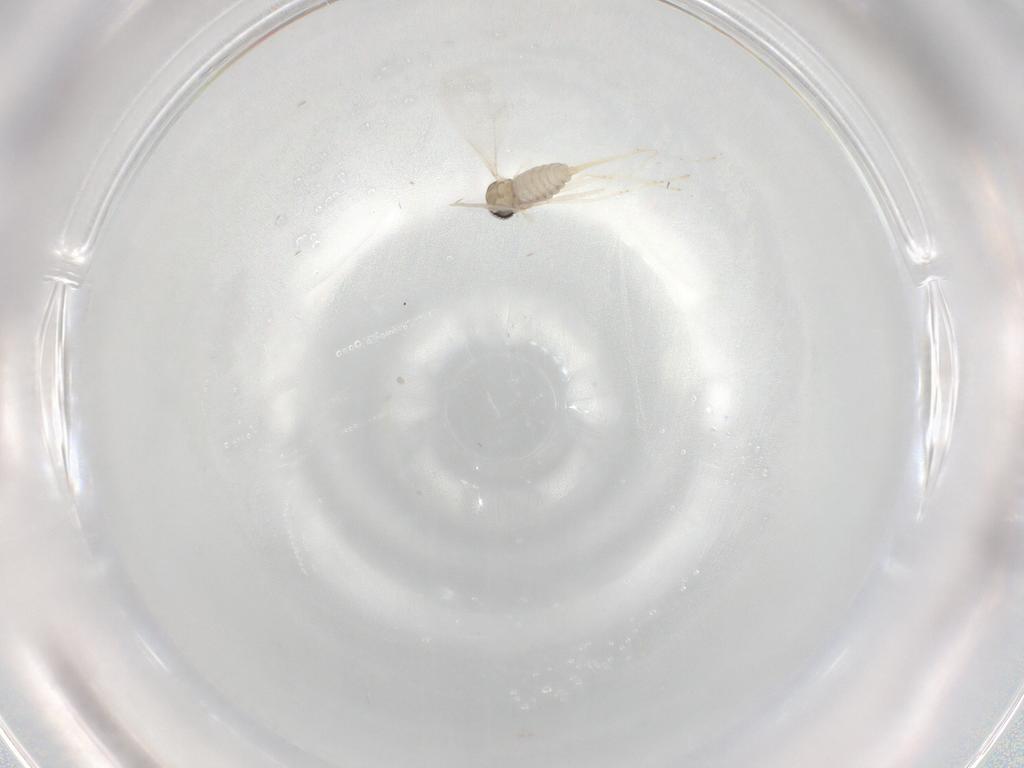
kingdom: Animalia
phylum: Arthropoda
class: Insecta
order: Diptera
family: Cecidomyiidae
